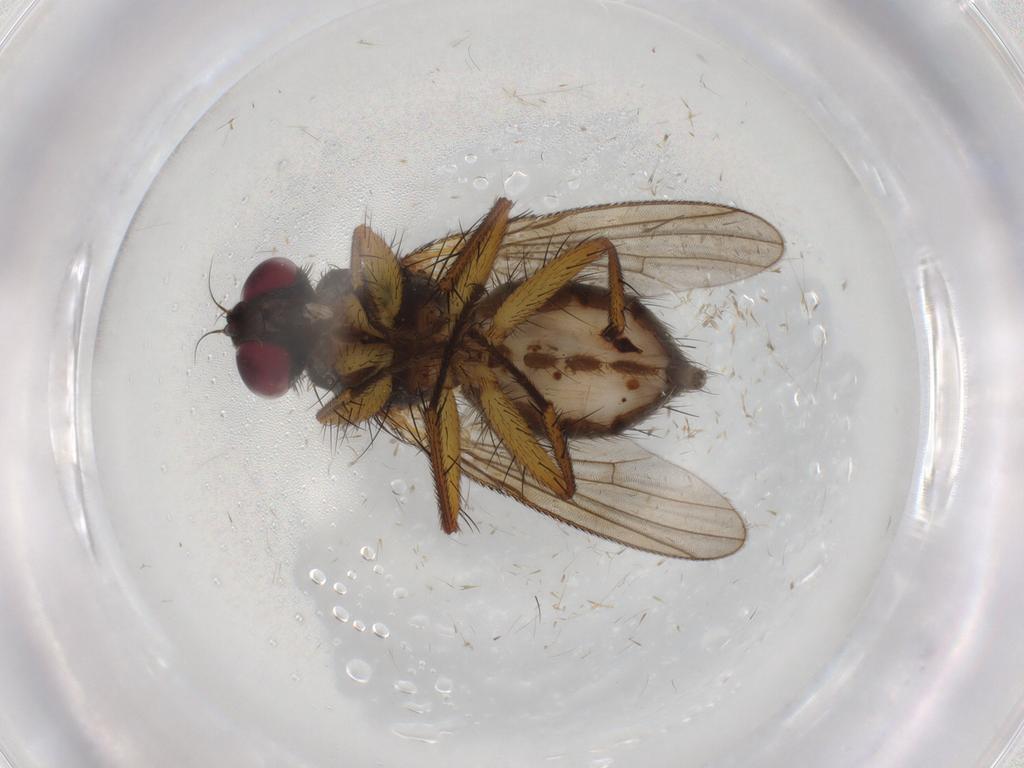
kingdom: Animalia
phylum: Arthropoda
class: Insecta
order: Diptera
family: Muscidae
